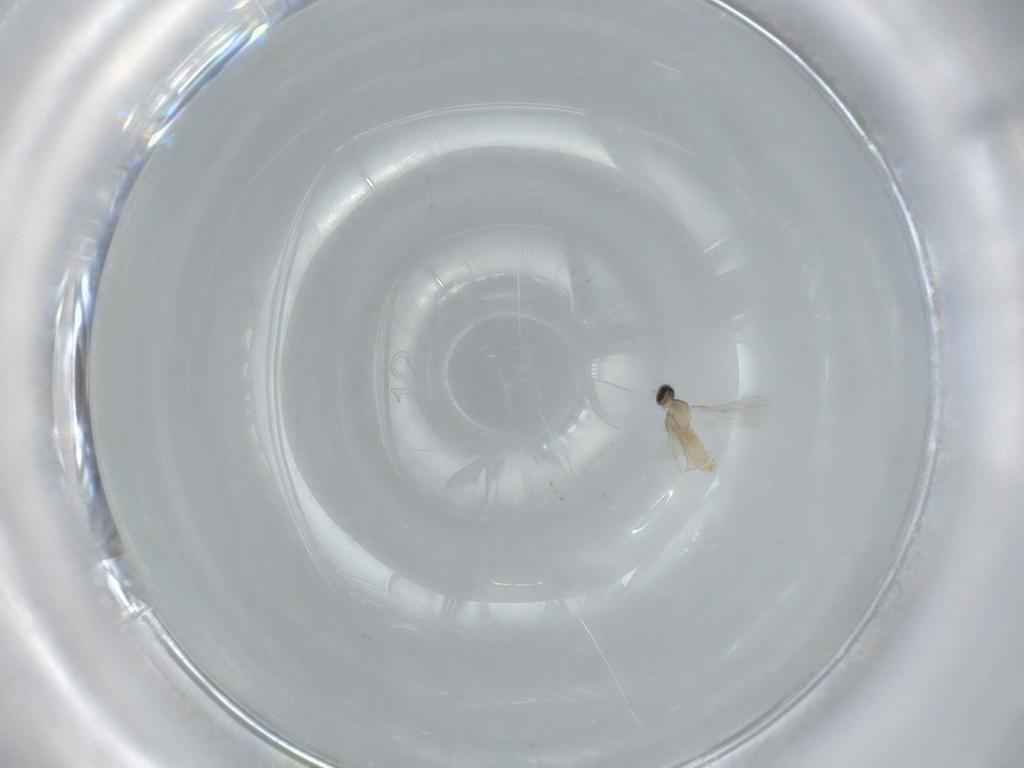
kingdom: Animalia
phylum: Arthropoda
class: Insecta
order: Diptera
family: Cecidomyiidae
